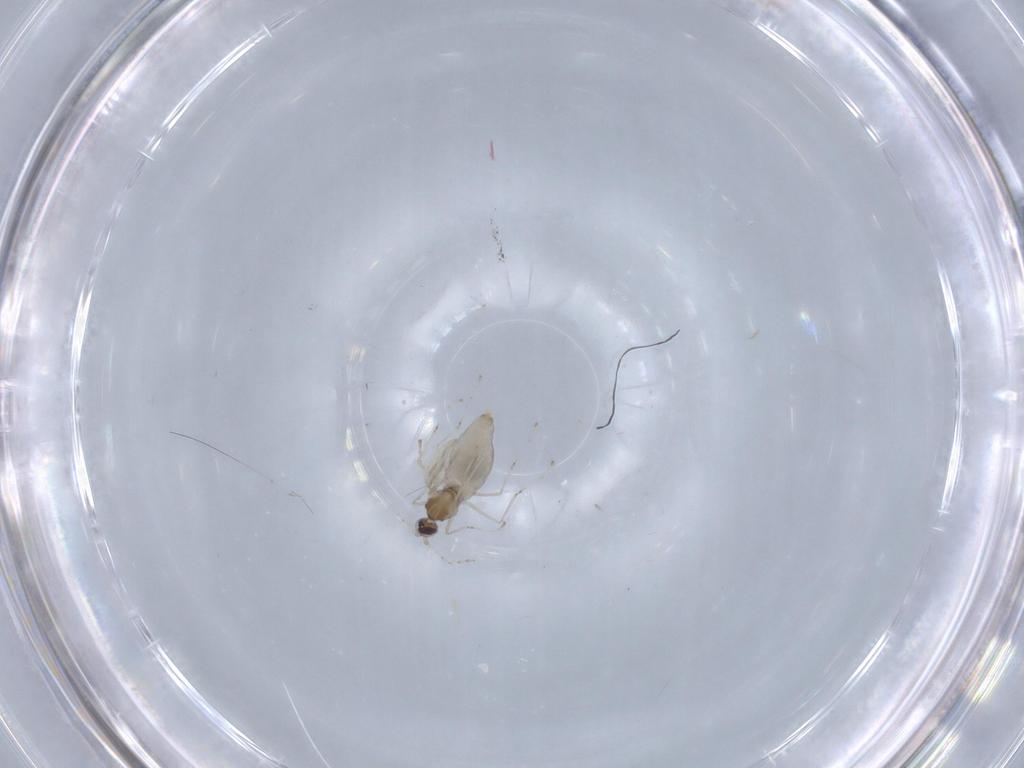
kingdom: Animalia
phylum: Arthropoda
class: Insecta
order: Diptera
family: Cecidomyiidae
